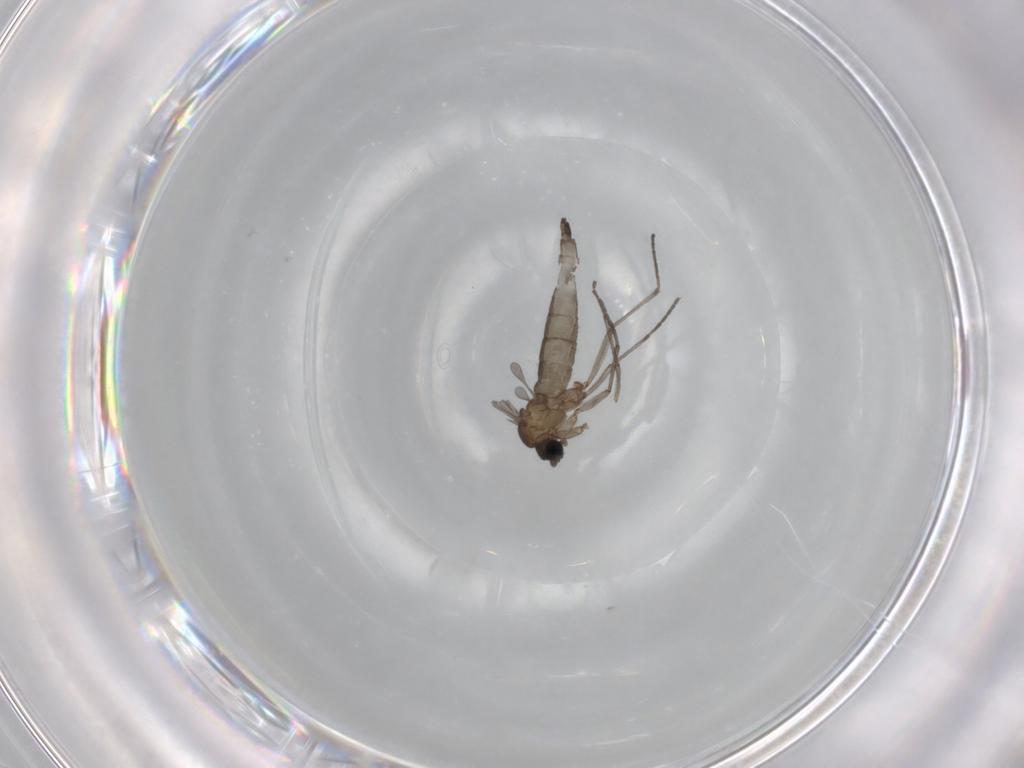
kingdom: Animalia
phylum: Arthropoda
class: Insecta
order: Diptera
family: Sciaridae
